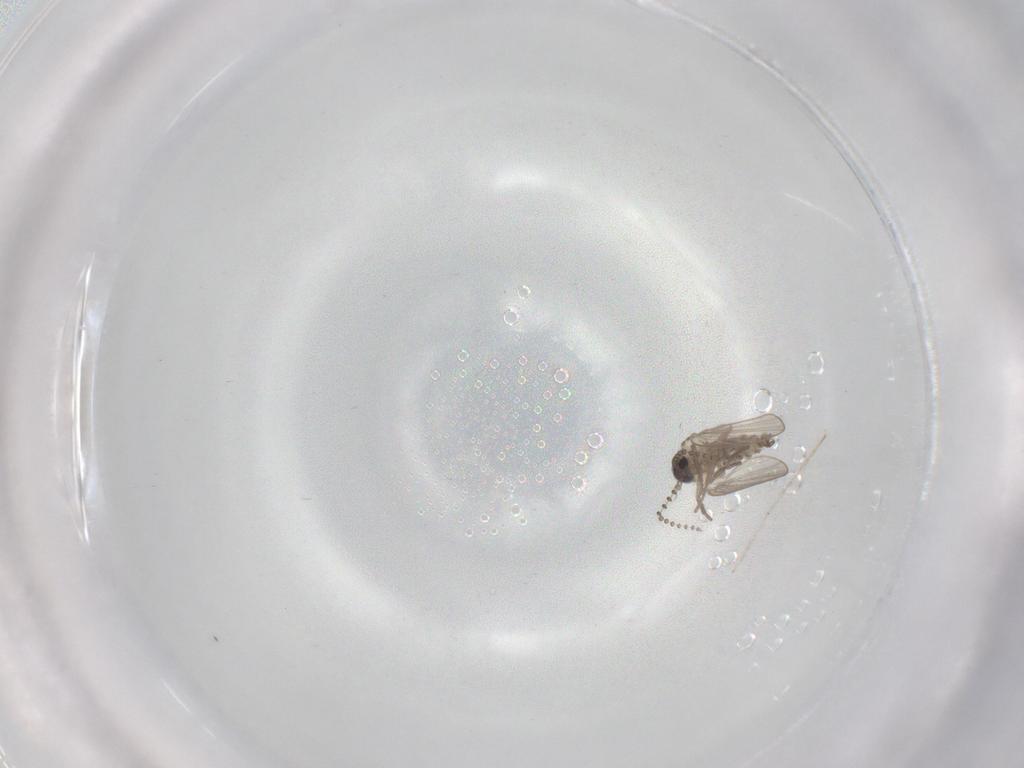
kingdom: Animalia
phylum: Arthropoda
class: Insecta
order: Diptera
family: Psychodidae
